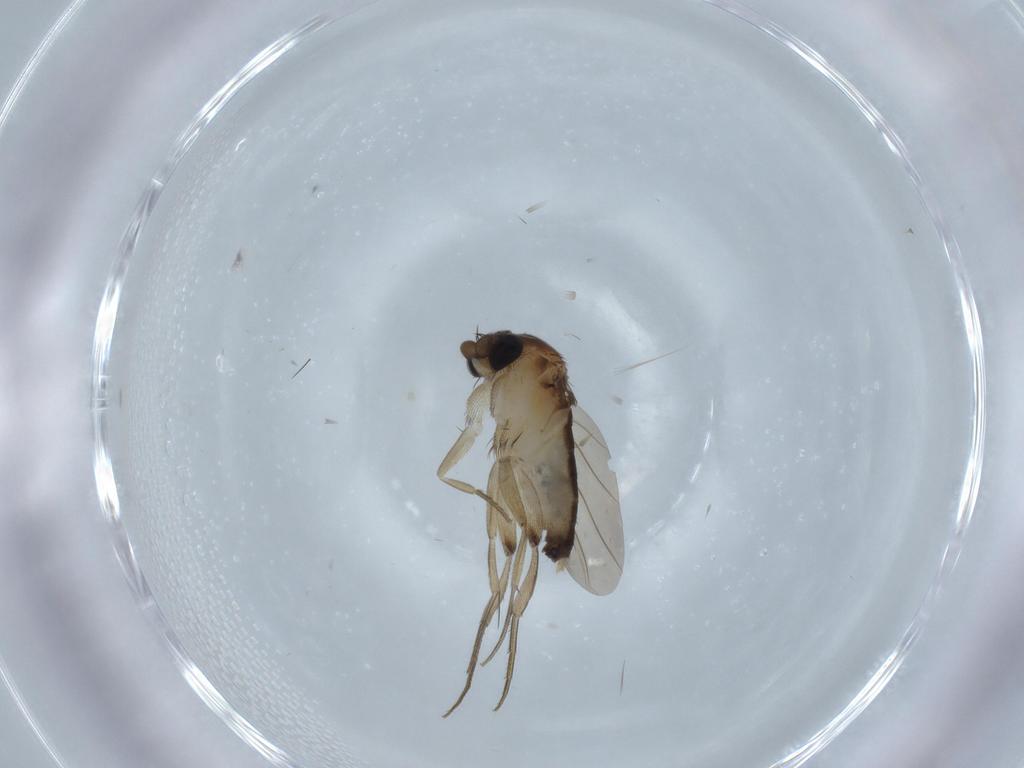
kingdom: Animalia
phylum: Arthropoda
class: Insecta
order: Diptera
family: Phoridae
